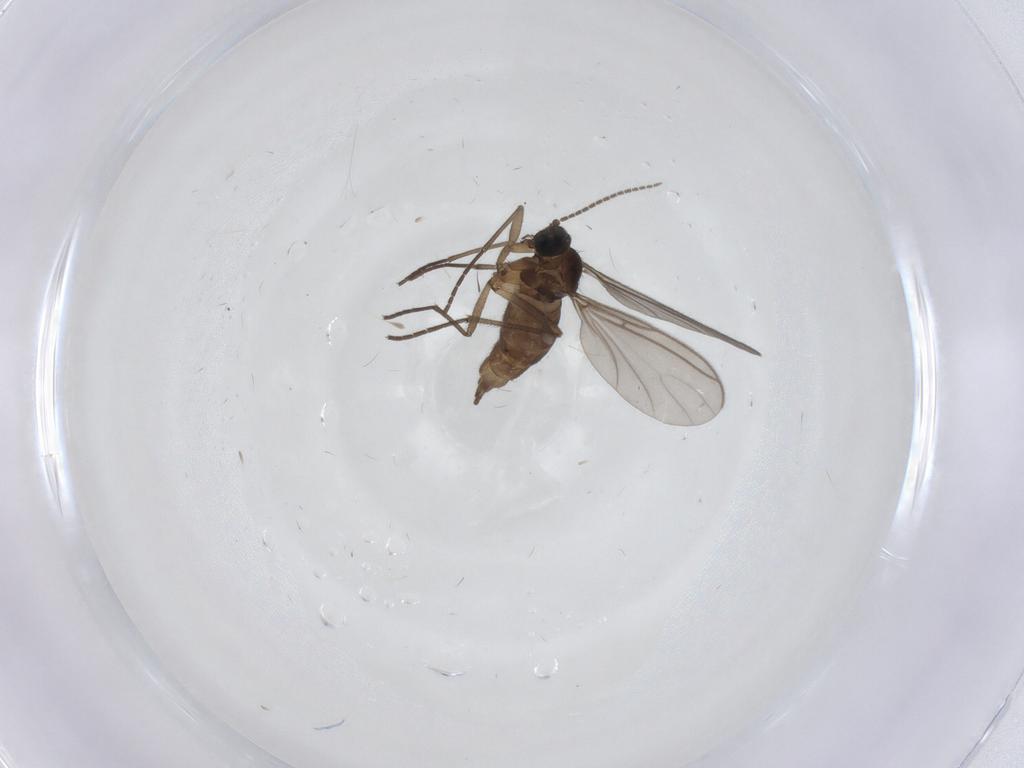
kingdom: Animalia
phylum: Arthropoda
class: Insecta
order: Diptera
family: Sciaridae
